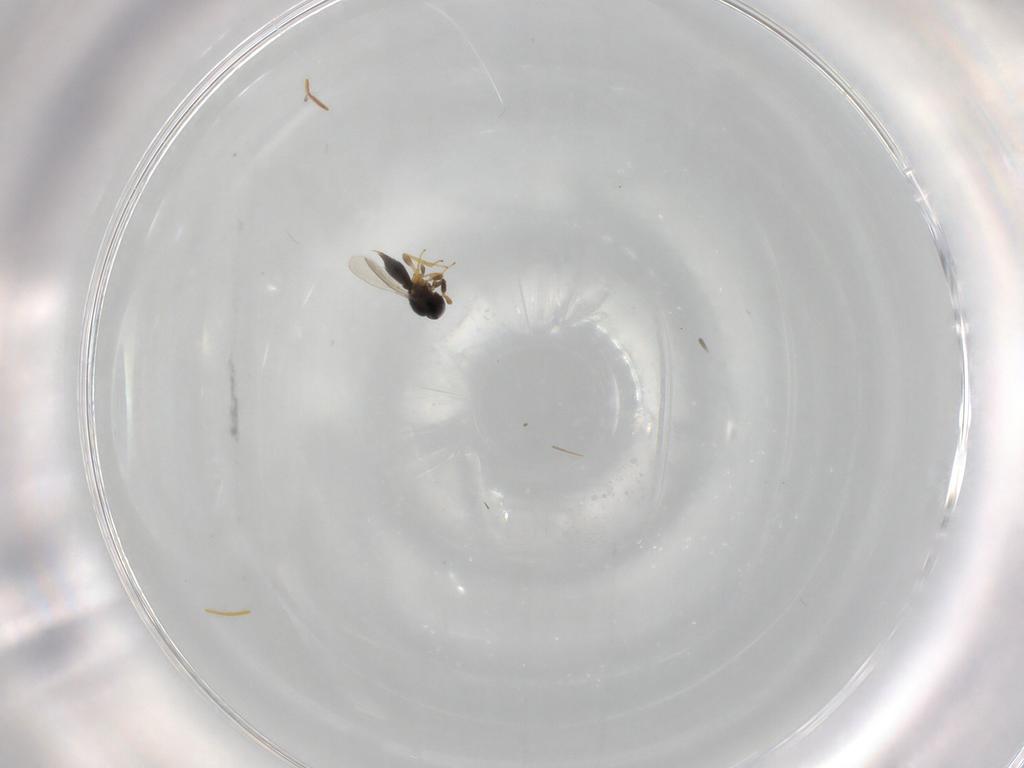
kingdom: Animalia
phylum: Arthropoda
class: Insecta
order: Hymenoptera
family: Platygastridae
